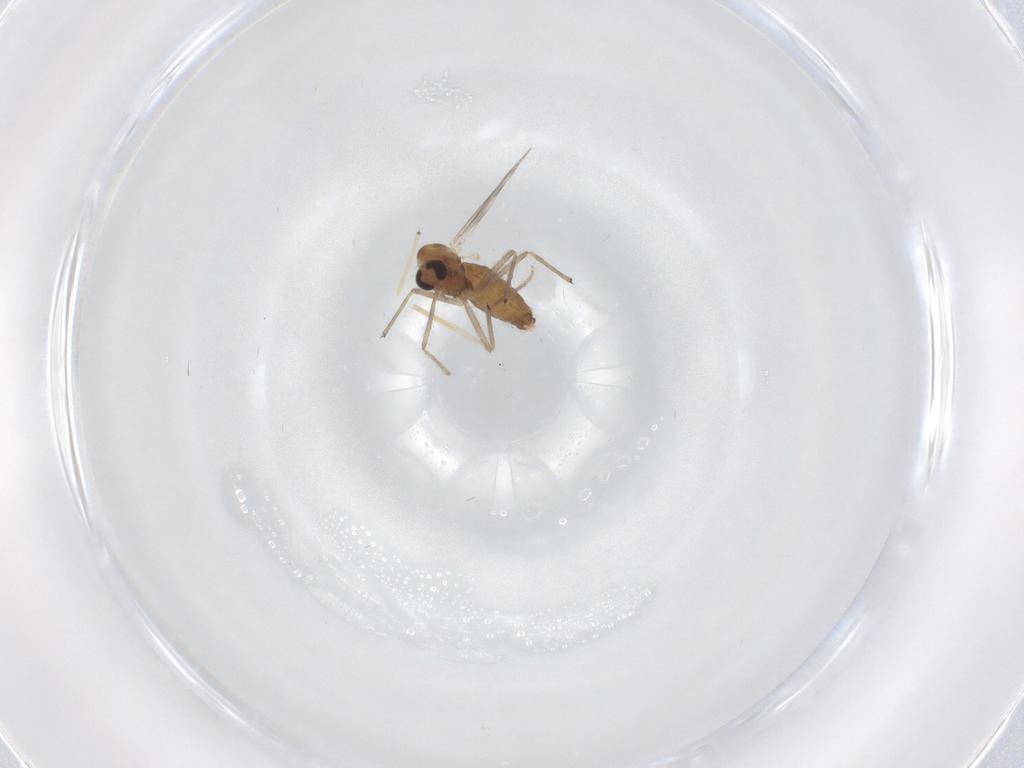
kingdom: Animalia
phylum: Arthropoda
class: Insecta
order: Diptera
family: Chironomidae
